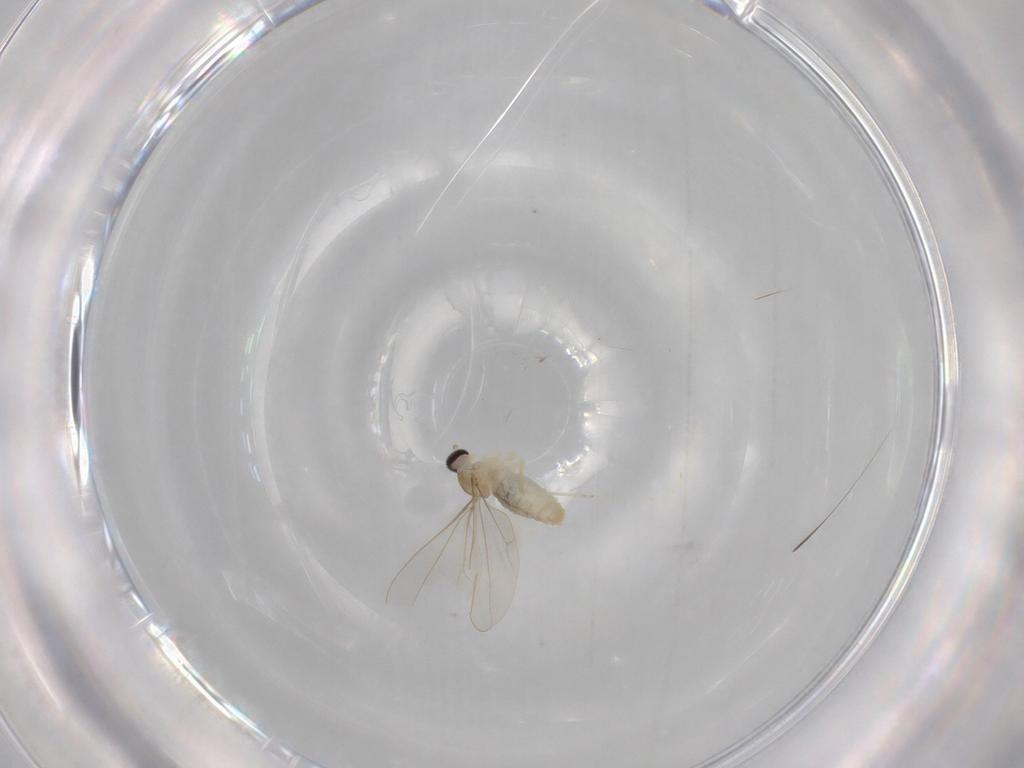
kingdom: Animalia
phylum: Arthropoda
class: Insecta
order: Diptera
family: Cecidomyiidae
